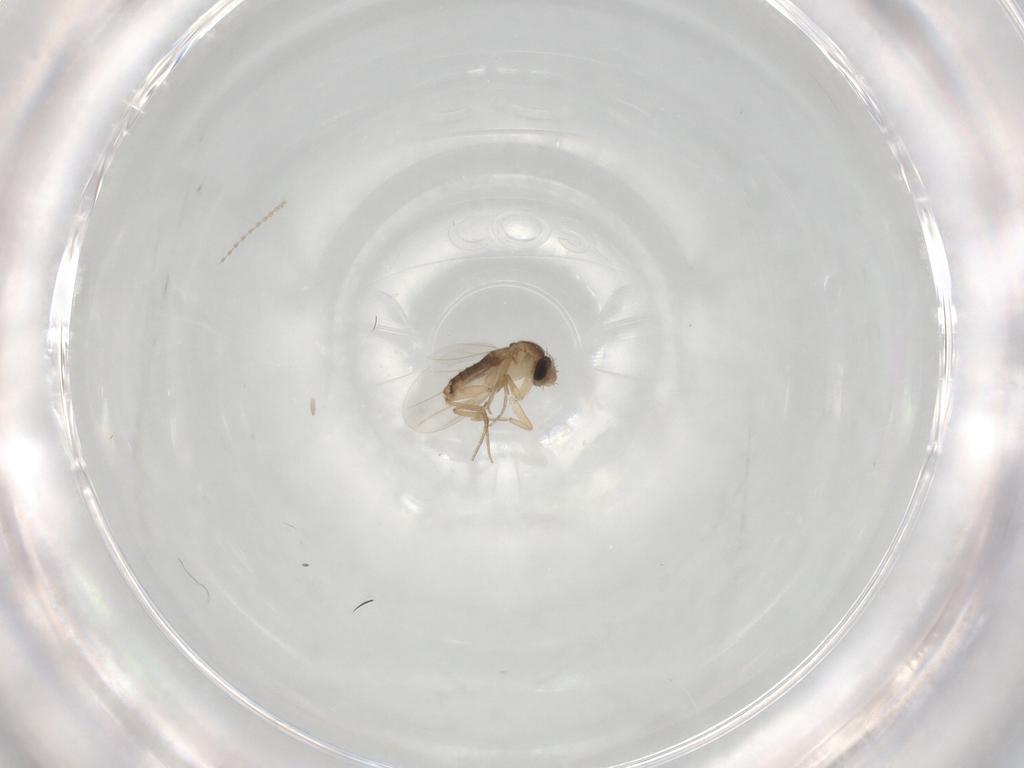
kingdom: Animalia
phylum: Arthropoda
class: Insecta
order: Diptera
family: Phoridae
